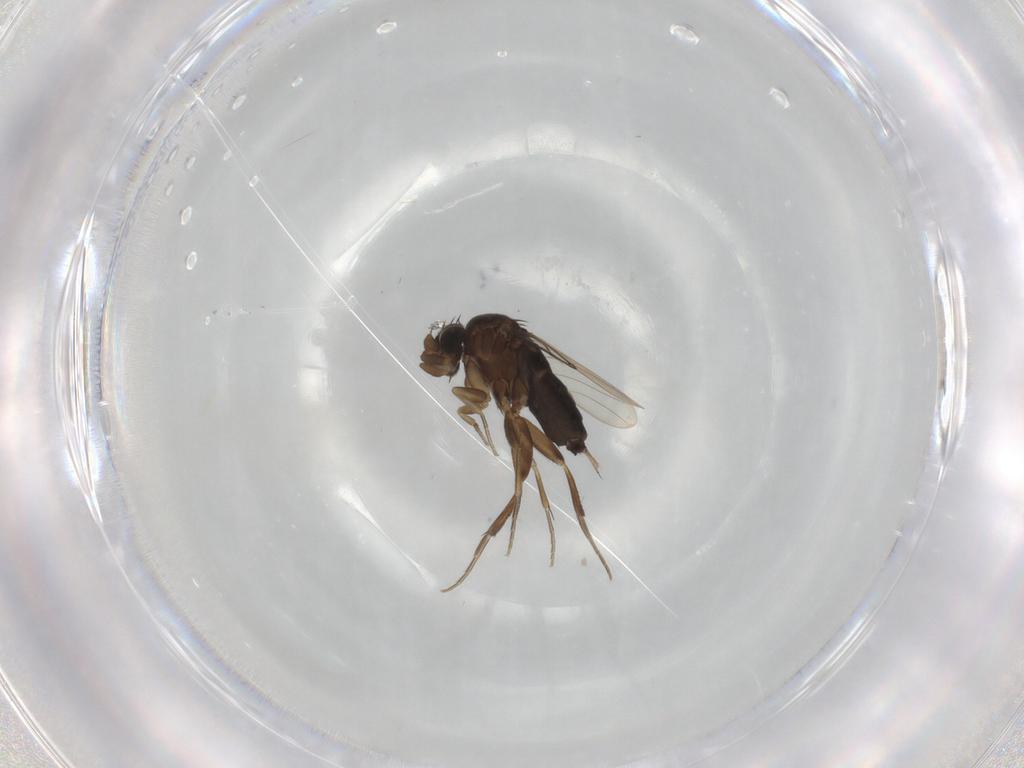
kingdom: Animalia
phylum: Arthropoda
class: Insecta
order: Diptera
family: Phoridae
